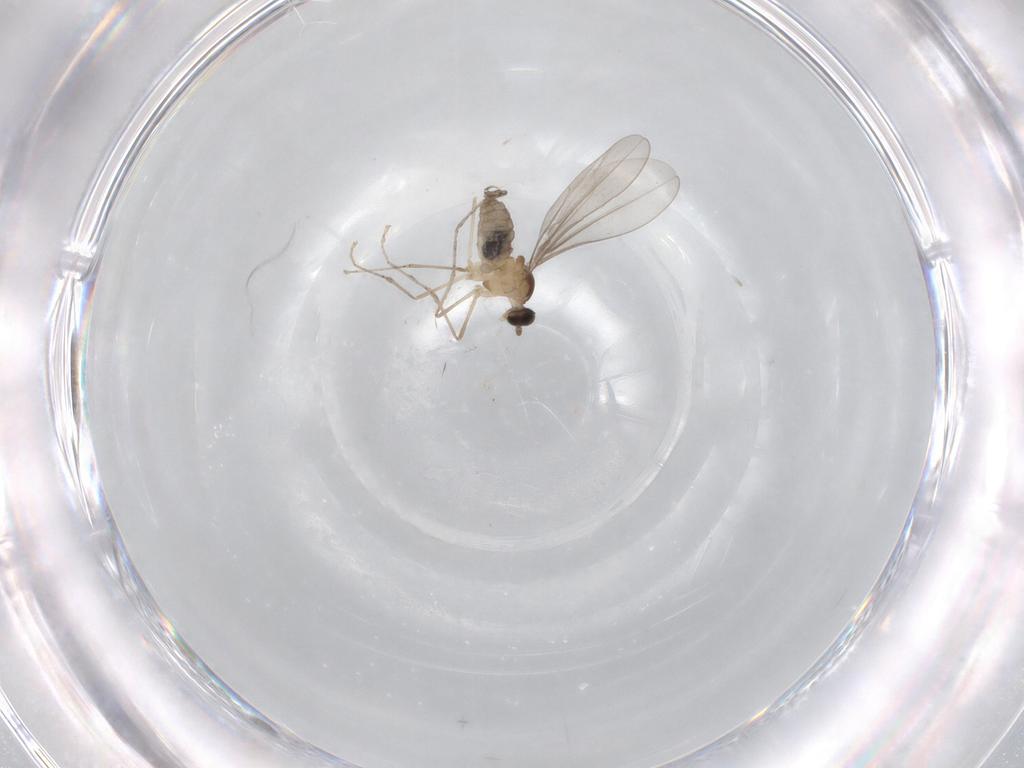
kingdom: Animalia
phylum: Arthropoda
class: Insecta
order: Diptera
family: Cecidomyiidae
